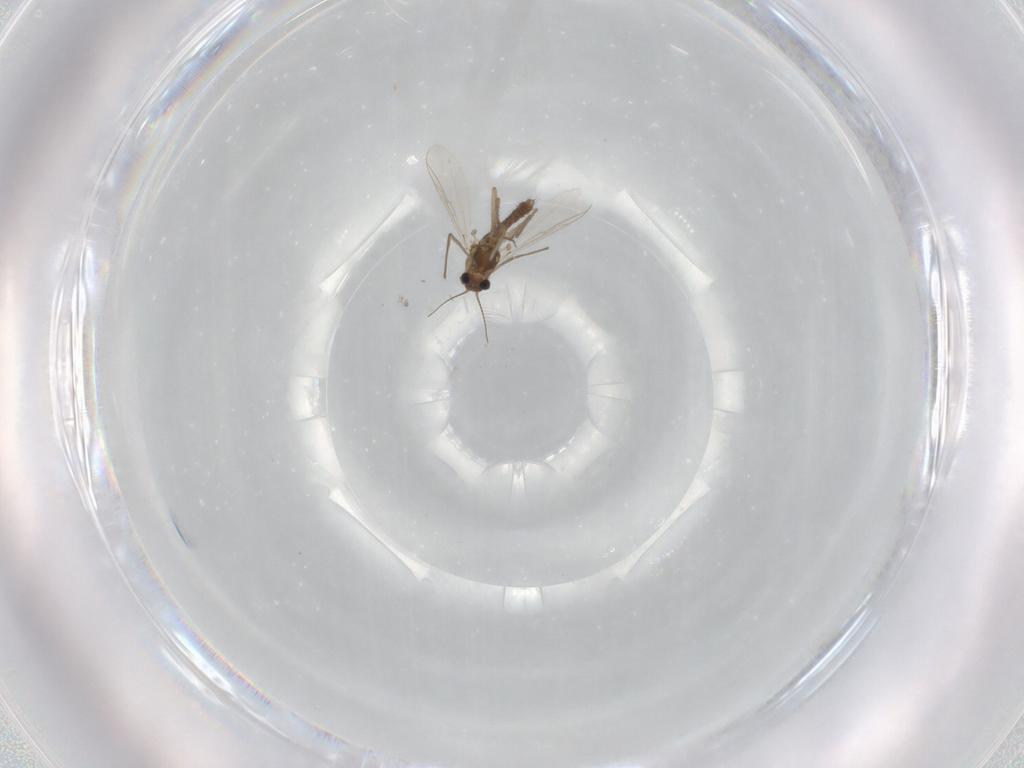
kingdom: Animalia
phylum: Arthropoda
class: Insecta
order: Diptera
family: Chironomidae
